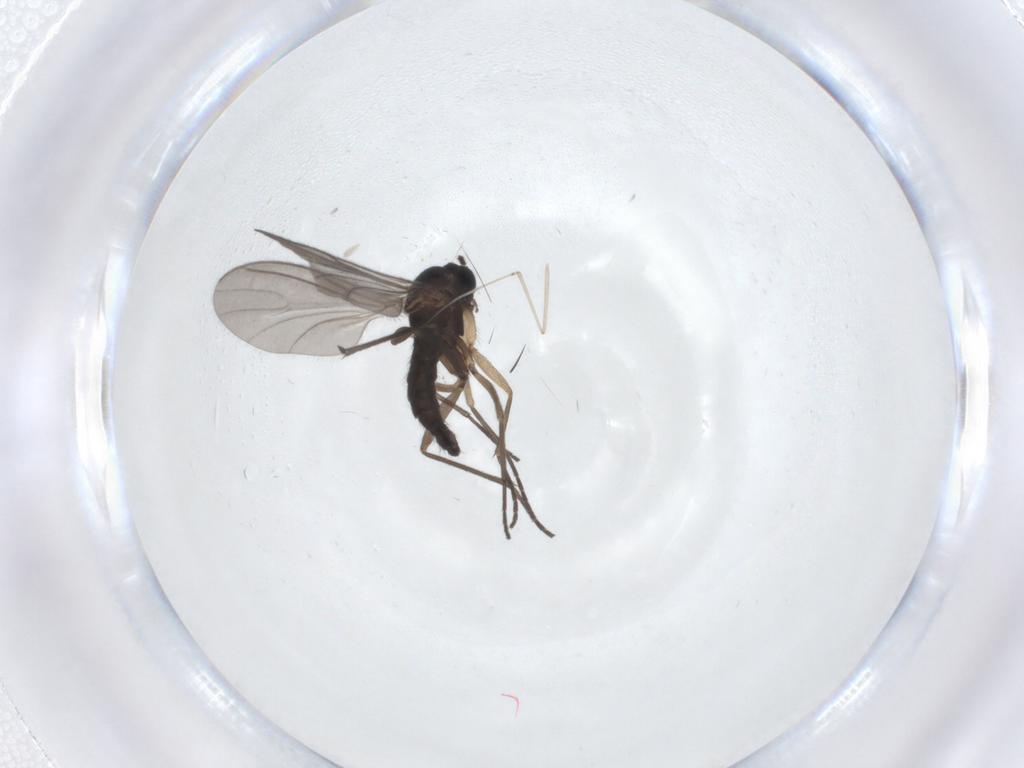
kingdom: Animalia
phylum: Arthropoda
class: Insecta
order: Diptera
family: Sciaridae
